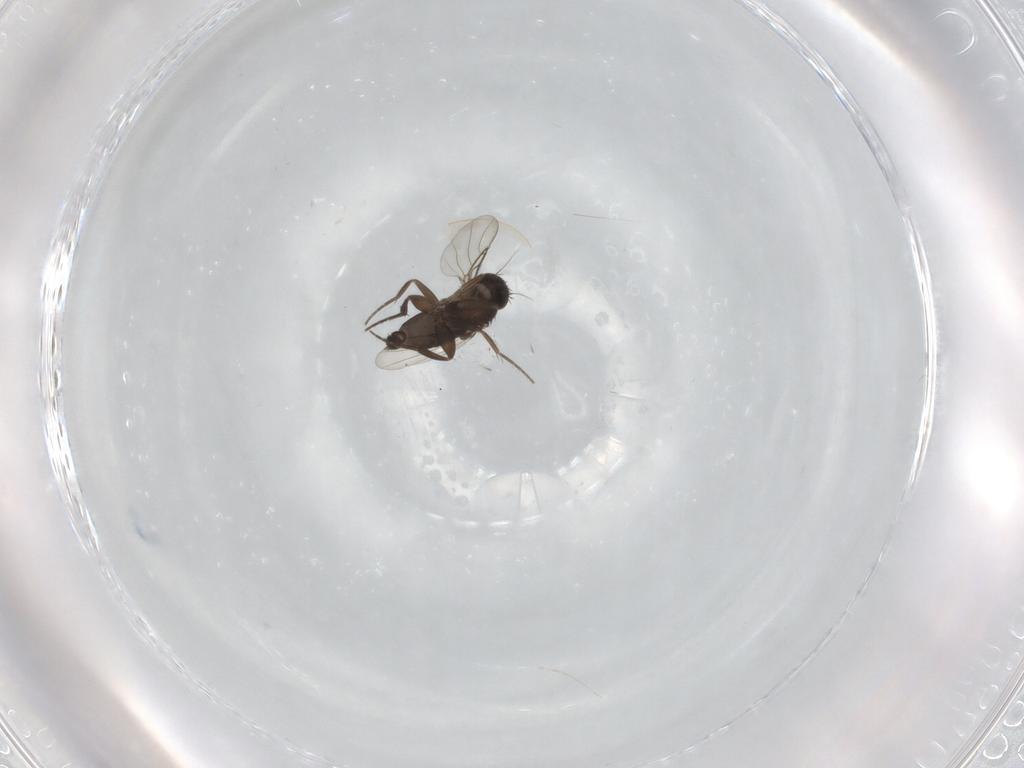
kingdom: Animalia
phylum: Arthropoda
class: Insecta
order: Diptera
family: Phoridae
